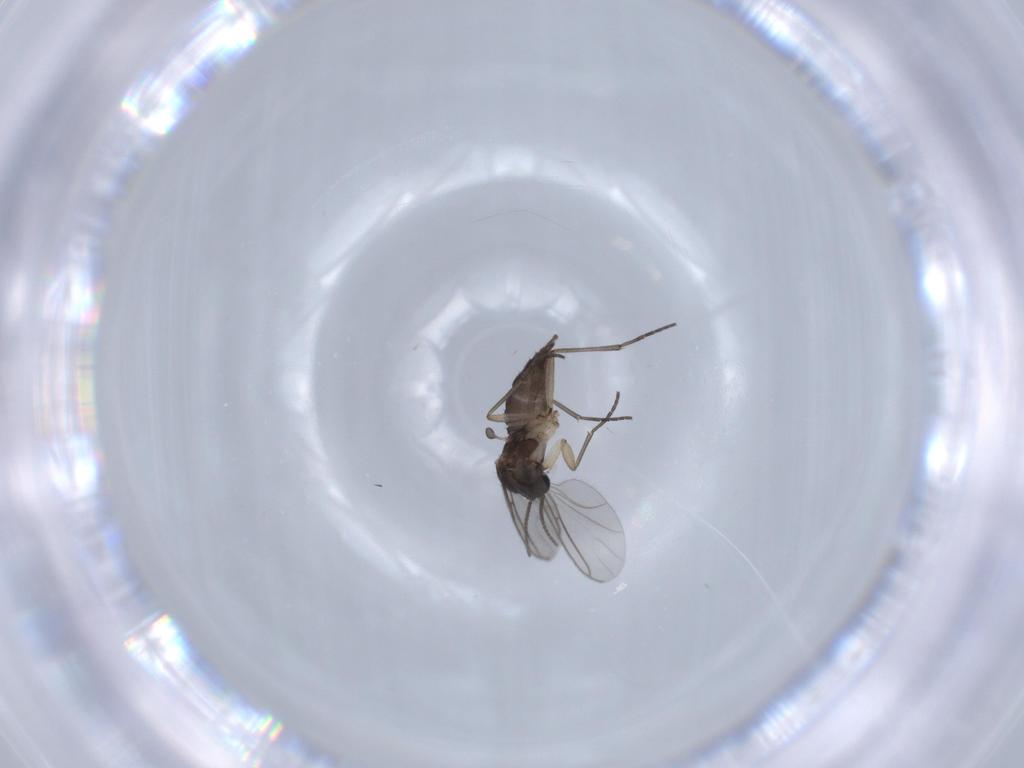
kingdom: Animalia
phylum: Arthropoda
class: Insecta
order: Diptera
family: Sciaridae
